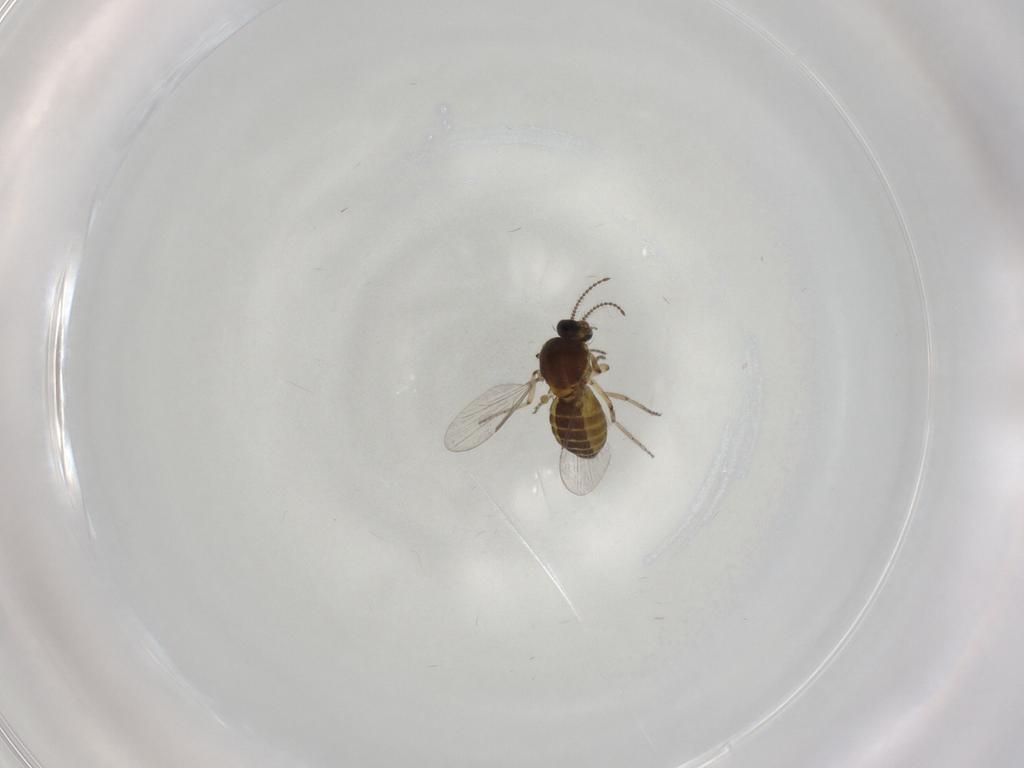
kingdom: Animalia
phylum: Arthropoda
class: Insecta
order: Diptera
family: Ceratopogonidae
